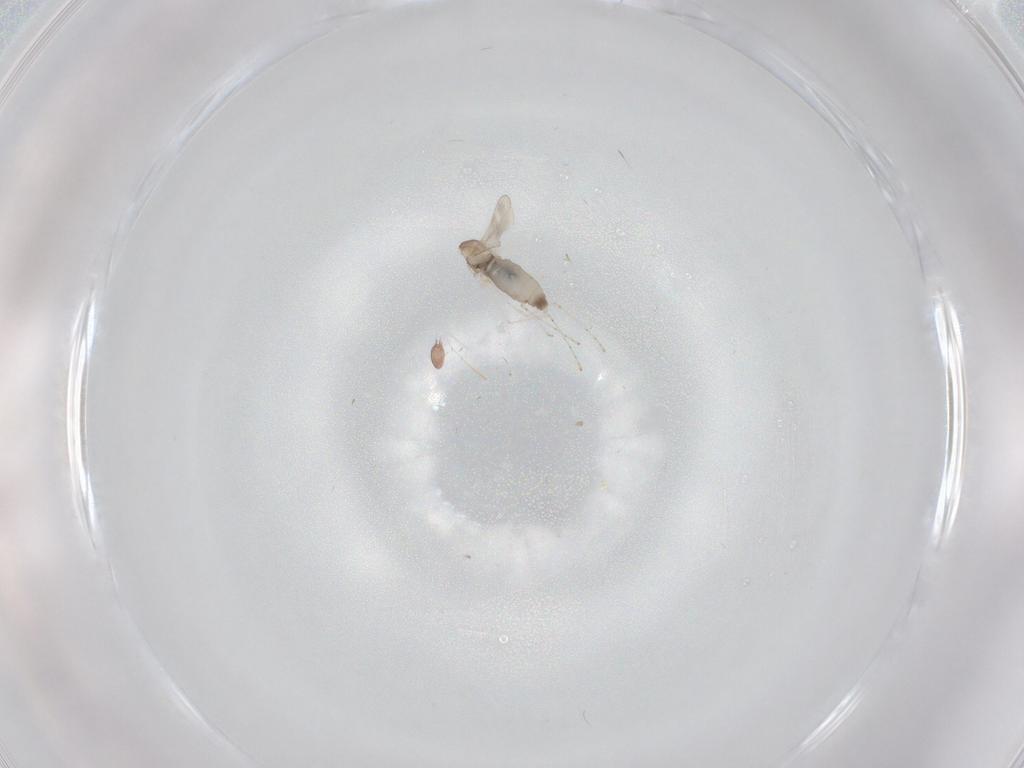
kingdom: Animalia
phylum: Arthropoda
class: Insecta
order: Diptera
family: Cecidomyiidae
